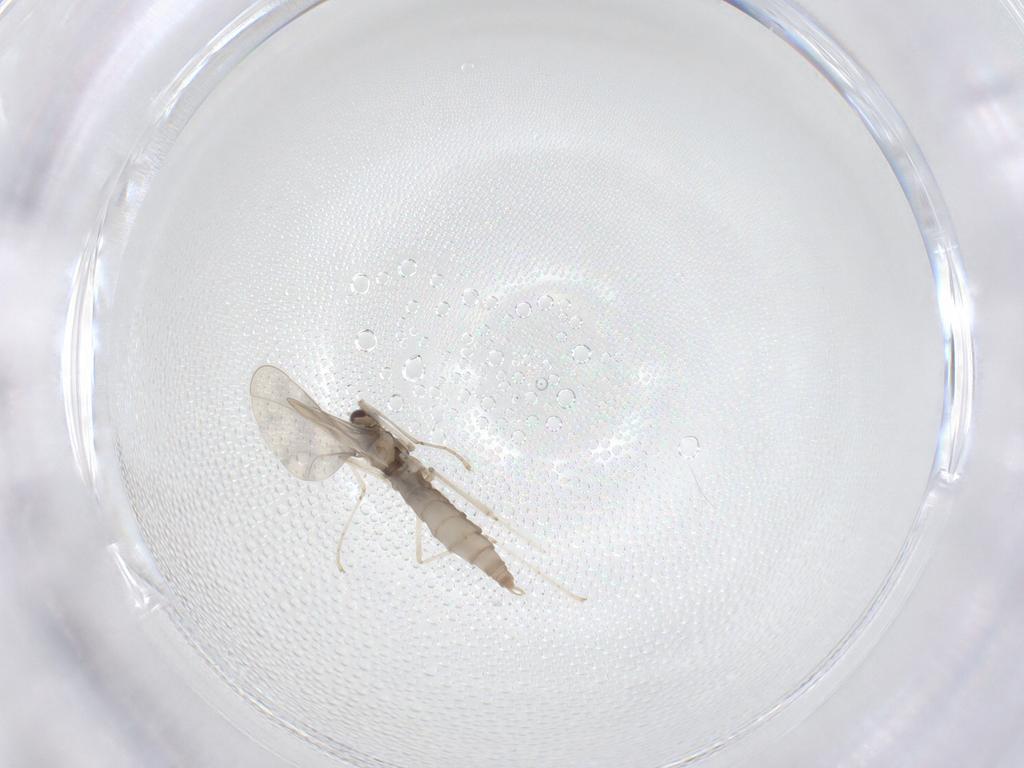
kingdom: Animalia
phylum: Arthropoda
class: Insecta
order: Diptera
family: Cecidomyiidae
